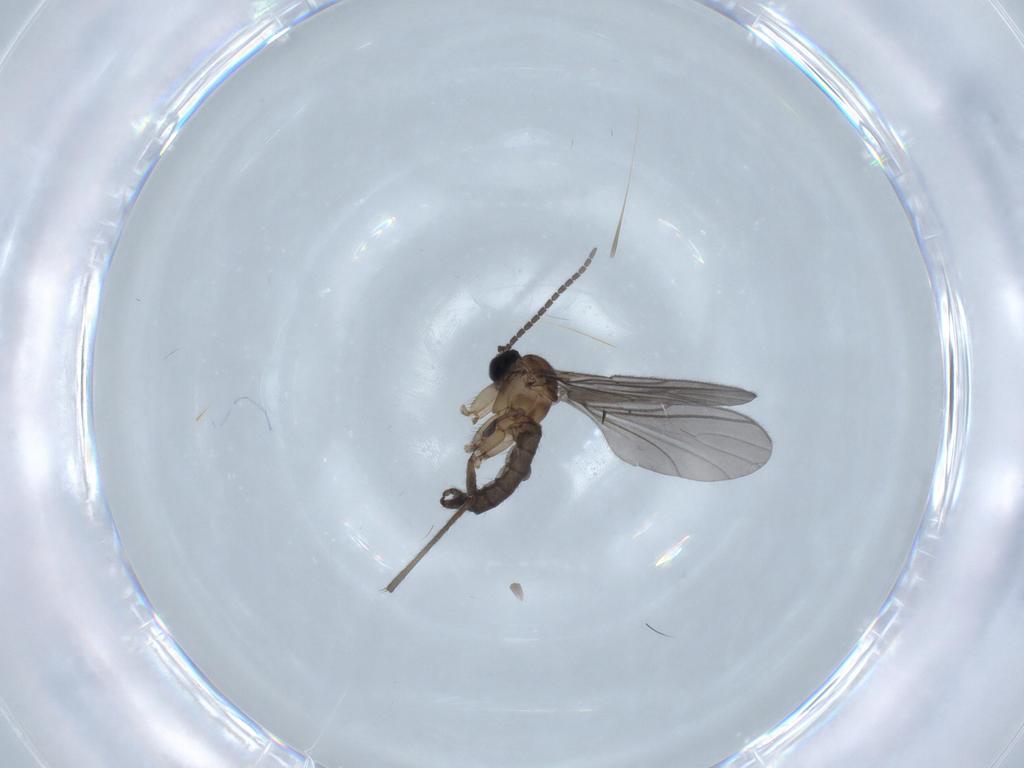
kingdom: Animalia
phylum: Arthropoda
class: Insecta
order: Diptera
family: Sciaridae
